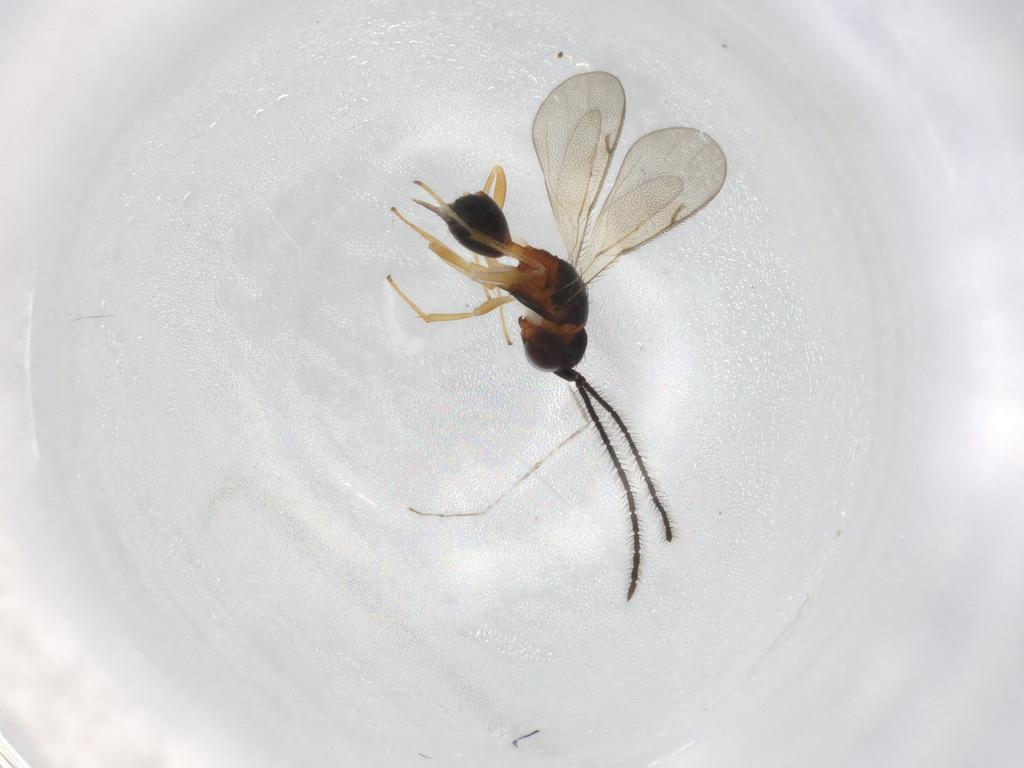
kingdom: Animalia
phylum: Arthropoda
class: Insecta
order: Hymenoptera
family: Diparidae
